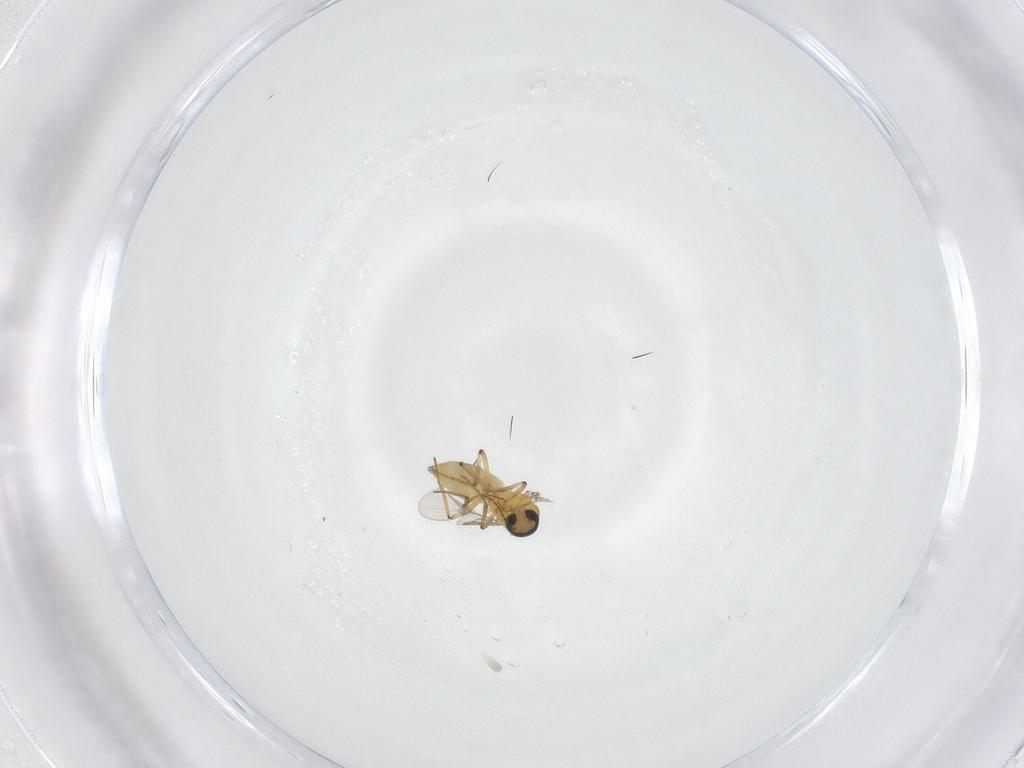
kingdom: Animalia
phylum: Arthropoda
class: Insecta
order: Diptera
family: Ceratopogonidae
